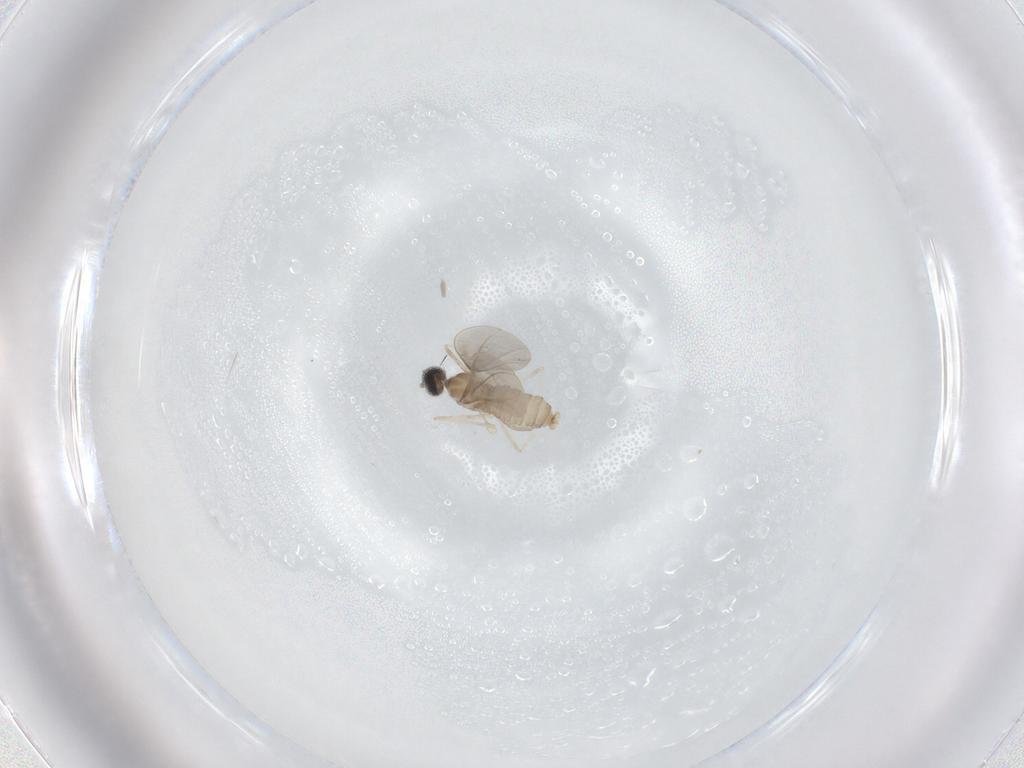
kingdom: Animalia
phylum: Arthropoda
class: Insecta
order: Diptera
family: Cecidomyiidae
